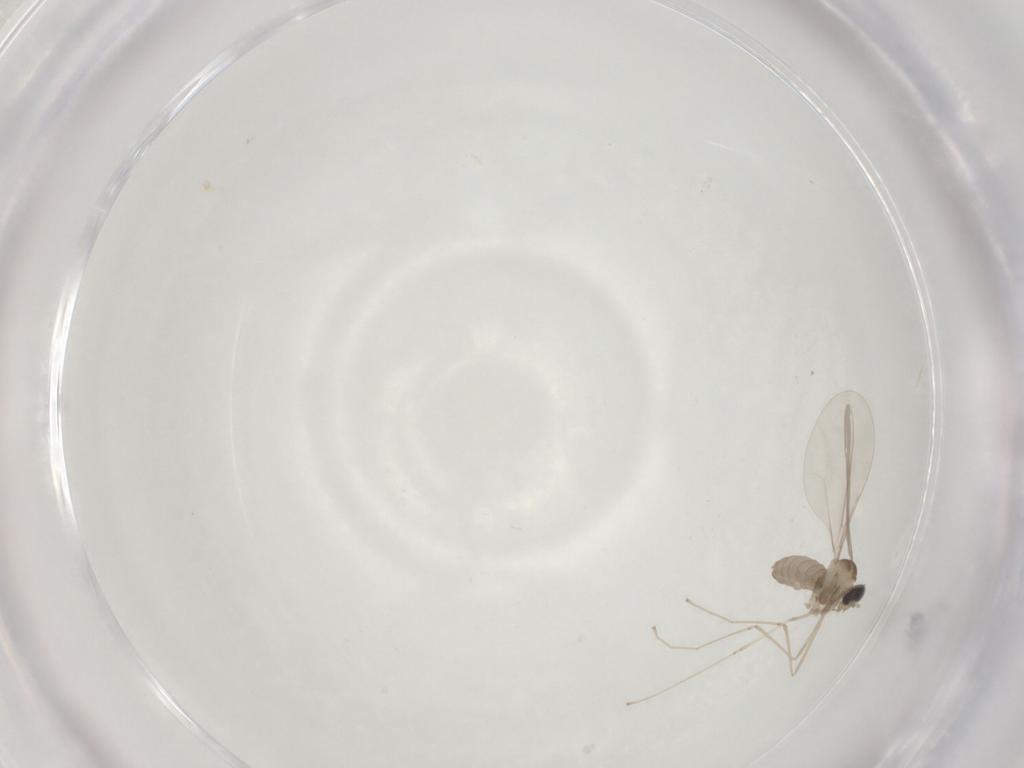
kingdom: Animalia
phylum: Arthropoda
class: Insecta
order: Diptera
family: Cecidomyiidae
